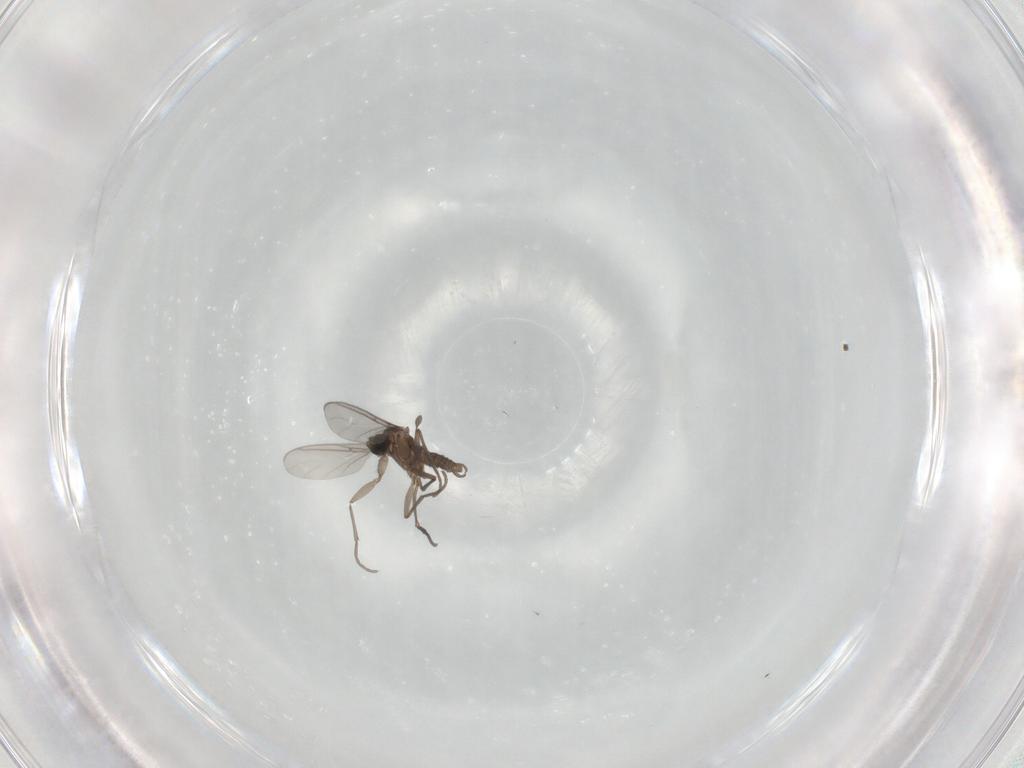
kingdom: Animalia
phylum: Arthropoda
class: Insecta
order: Diptera
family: Sciaridae
